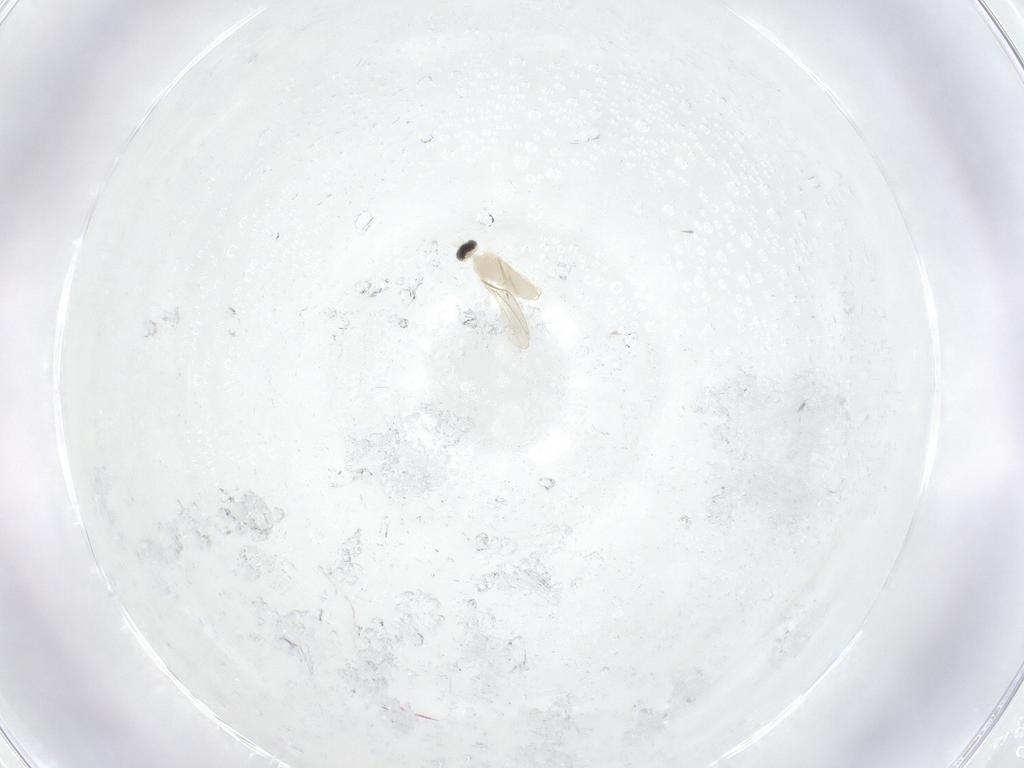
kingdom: Animalia
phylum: Arthropoda
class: Insecta
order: Diptera
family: Cecidomyiidae
